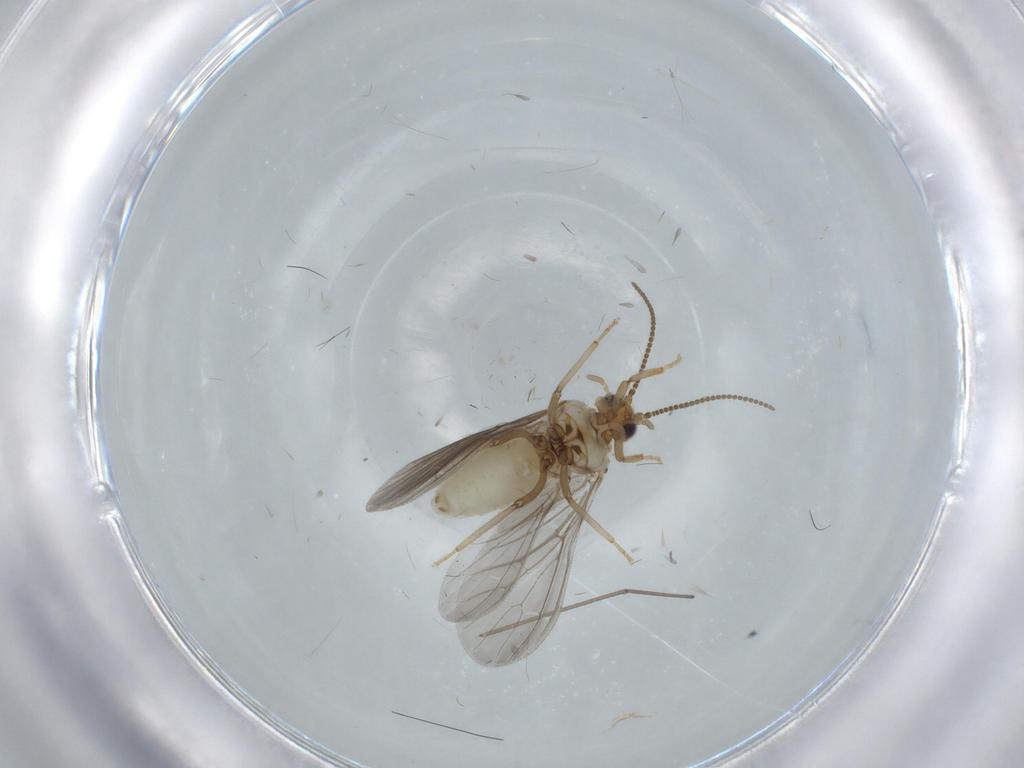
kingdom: Animalia
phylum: Arthropoda
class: Insecta
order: Neuroptera
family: Coniopterygidae
